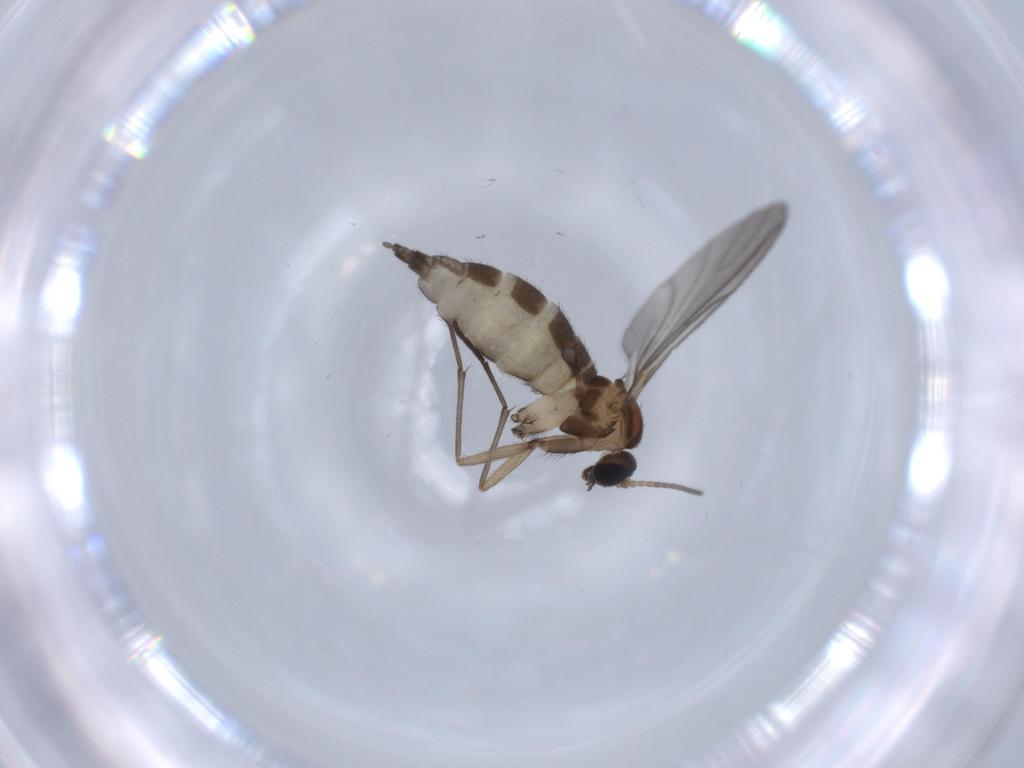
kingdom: Animalia
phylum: Arthropoda
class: Insecta
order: Diptera
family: Sciaridae
